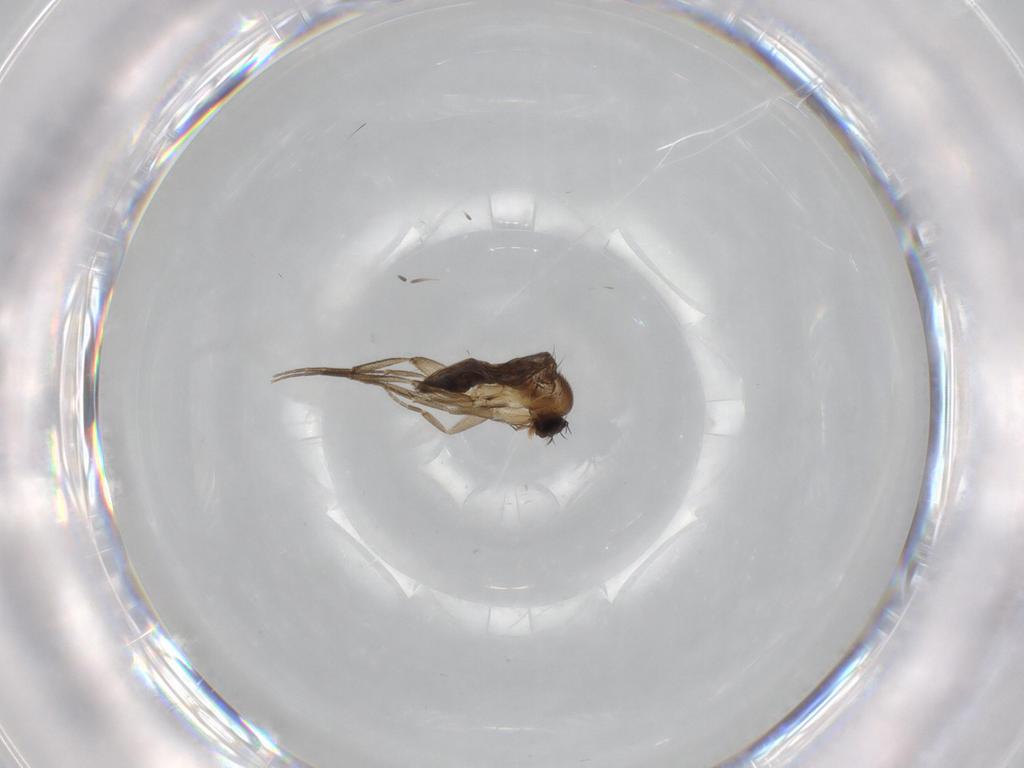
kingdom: Animalia
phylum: Arthropoda
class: Insecta
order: Diptera
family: Phoridae
